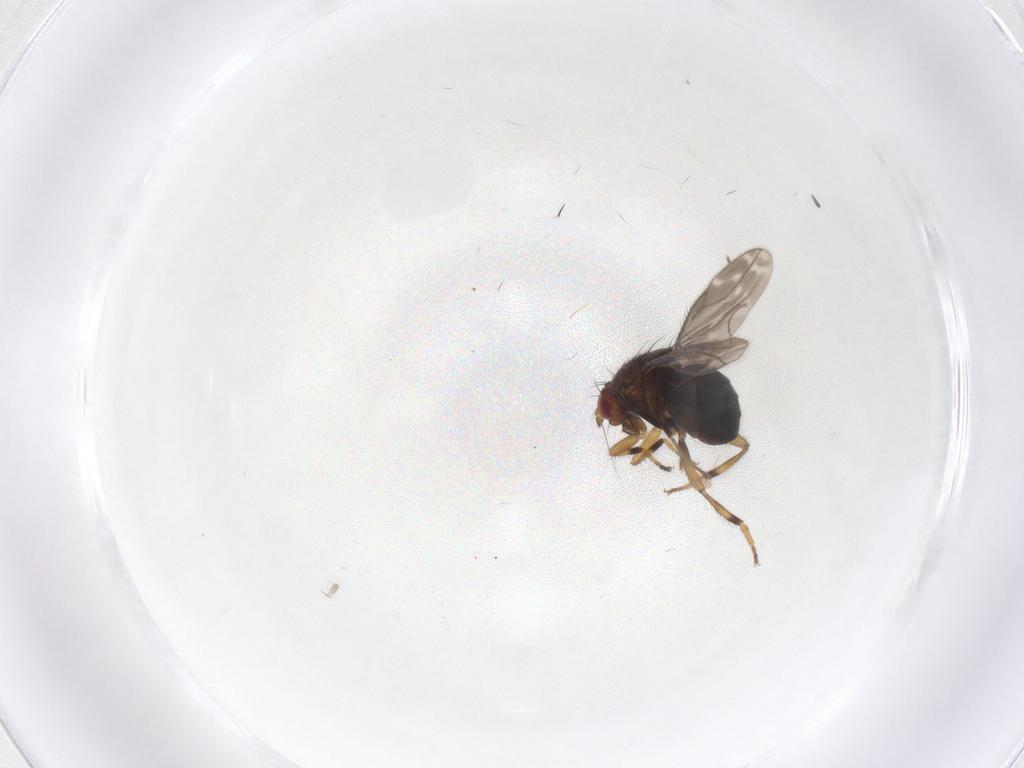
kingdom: Animalia
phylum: Arthropoda
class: Insecta
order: Diptera
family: Sphaeroceridae
